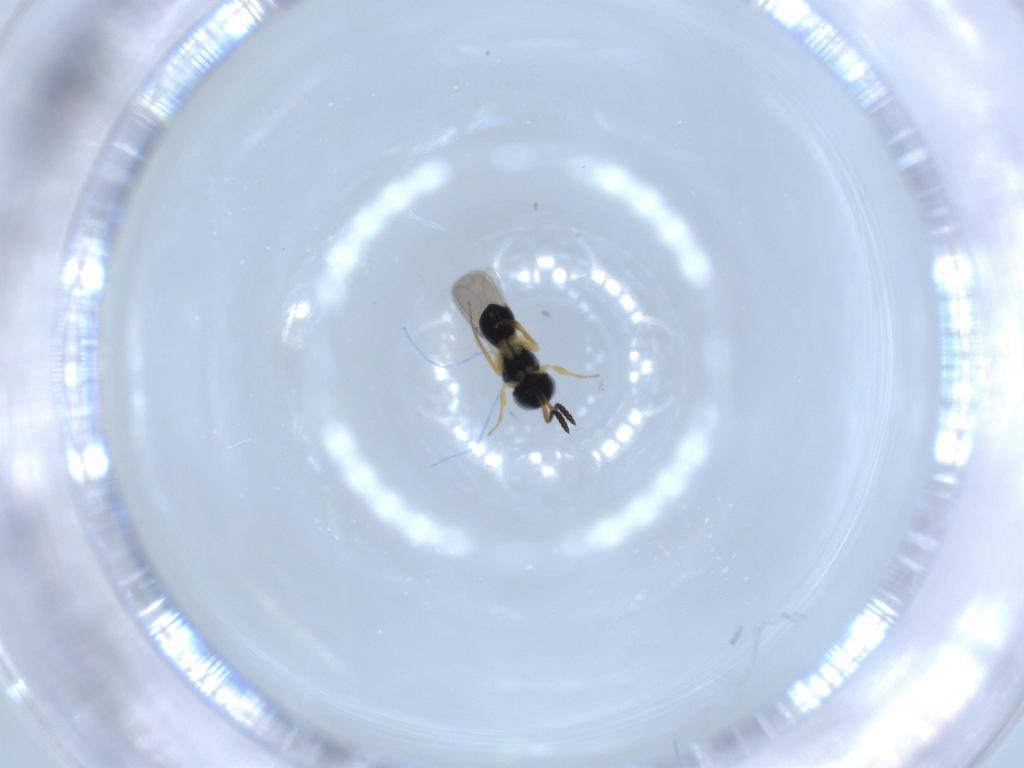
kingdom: Animalia
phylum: Arthropoda
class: Insecta
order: Hymenoptera
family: Scelionidae
